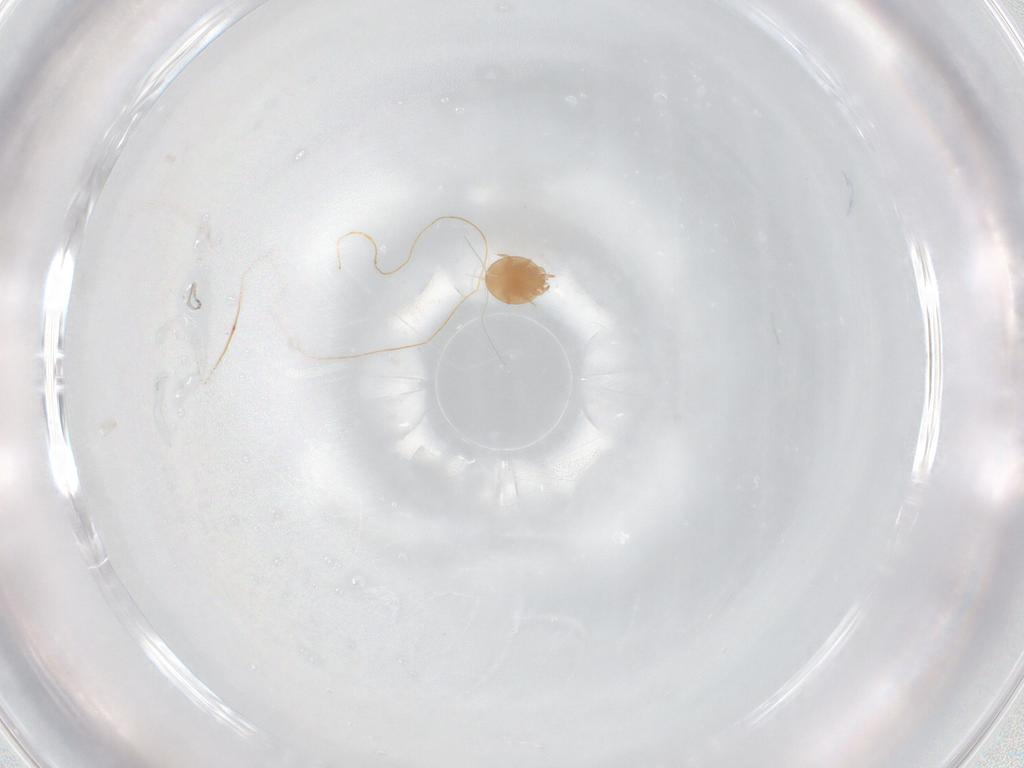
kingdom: Animalia
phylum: Arthropoda
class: Arachnida
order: Mesostigmata
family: Trematuridae
